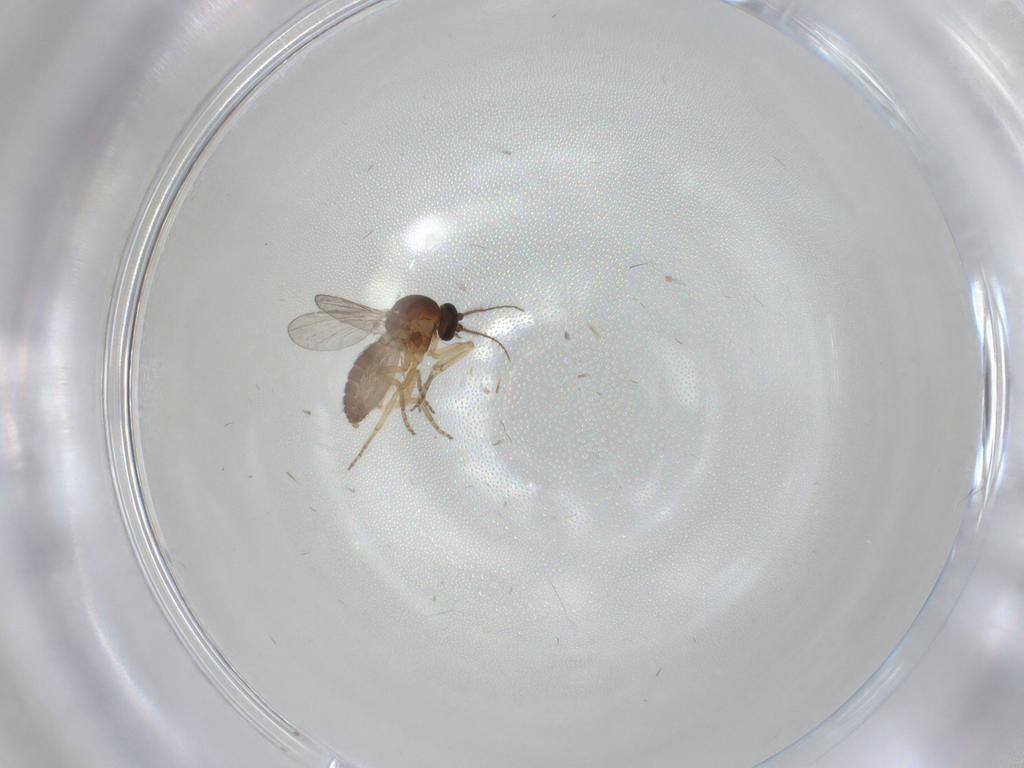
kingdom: Animalia
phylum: Arthropoda
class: Insecta
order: Diptera
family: Ceratopogonidae
